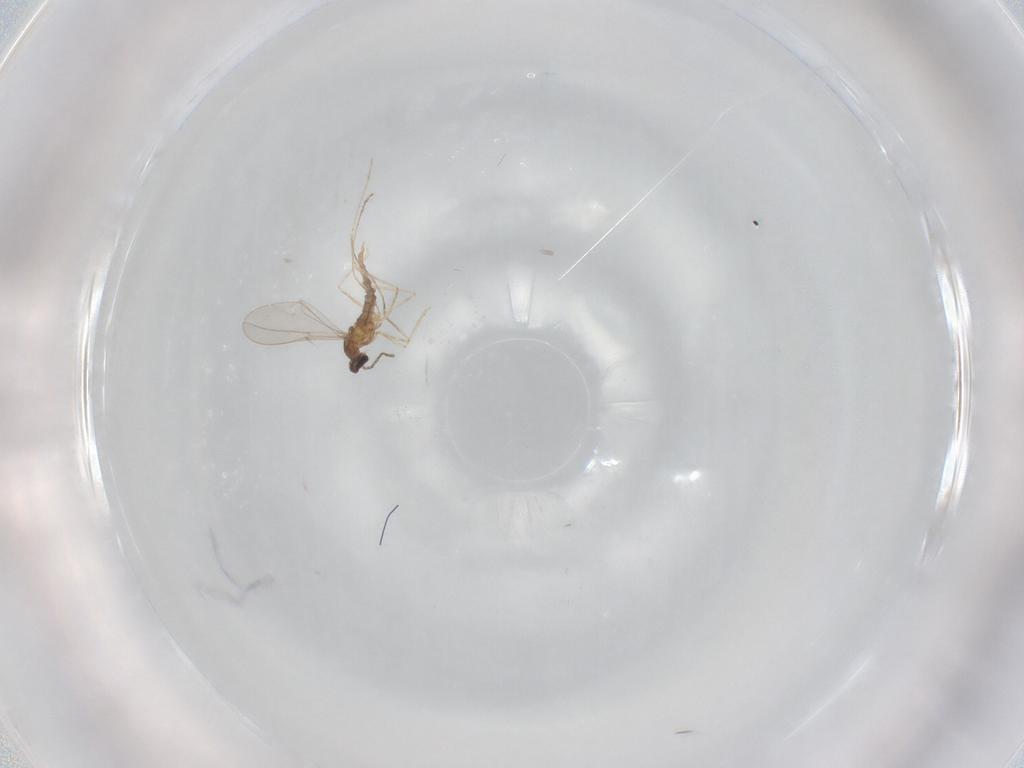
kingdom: Animalia
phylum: Arthropoda
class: Insecta
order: Diptera
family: Cecidomyiidae
